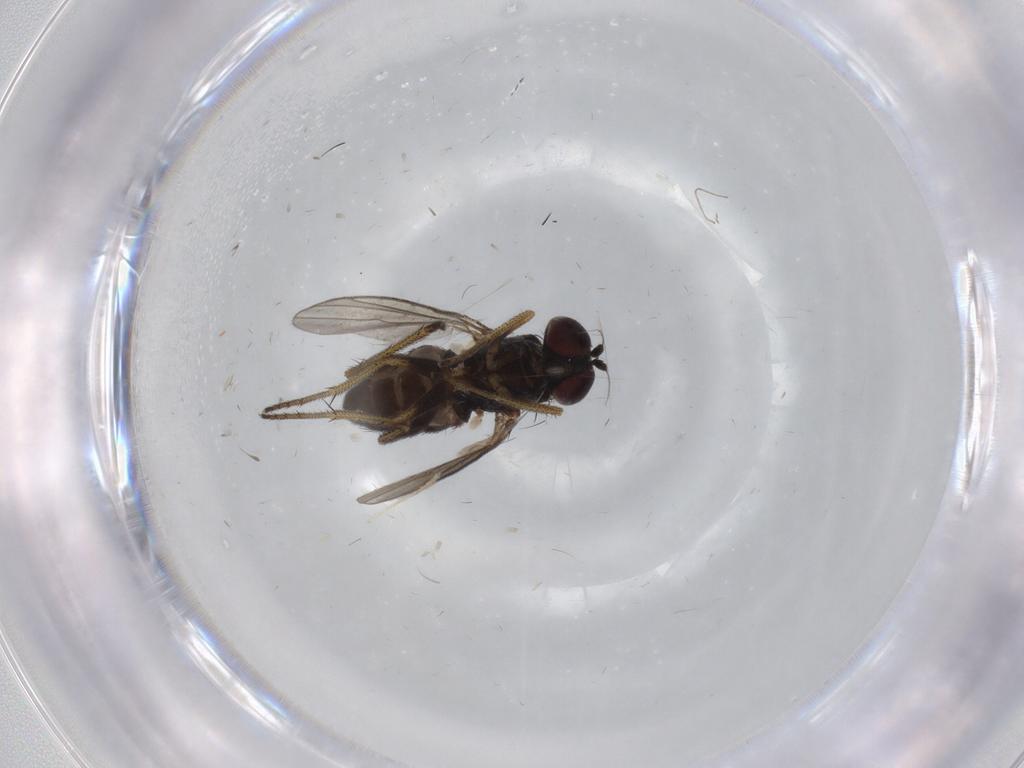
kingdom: Animalia
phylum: Arthropoda
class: Insecta
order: Diptera
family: Dolichopodidae
